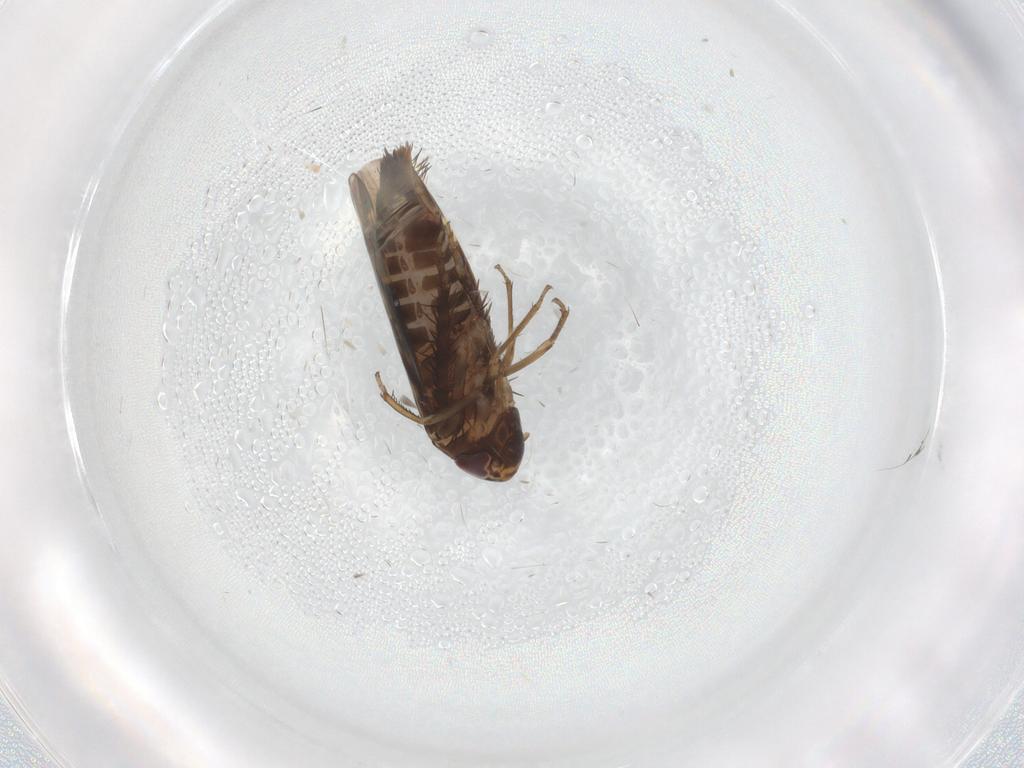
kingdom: Animalia
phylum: Arthropoda
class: Insecta
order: Hemiptera
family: Cicadellidae
